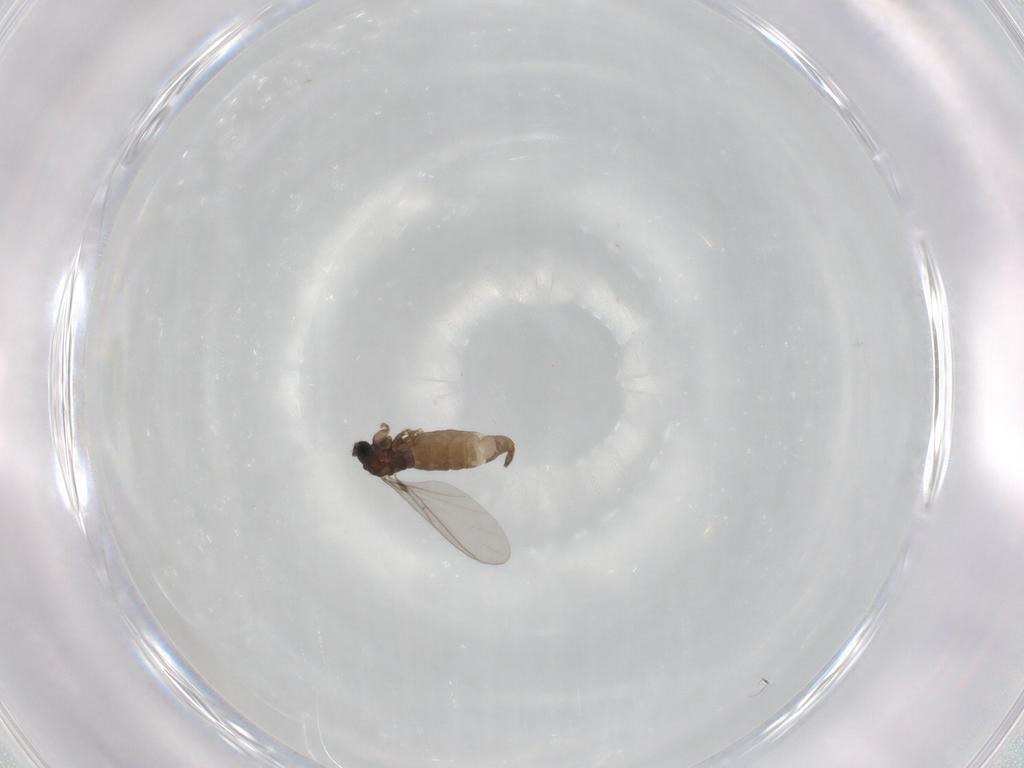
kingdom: Animalia
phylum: Arthropoda
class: Insecta
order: Diptera
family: Sciaridae
